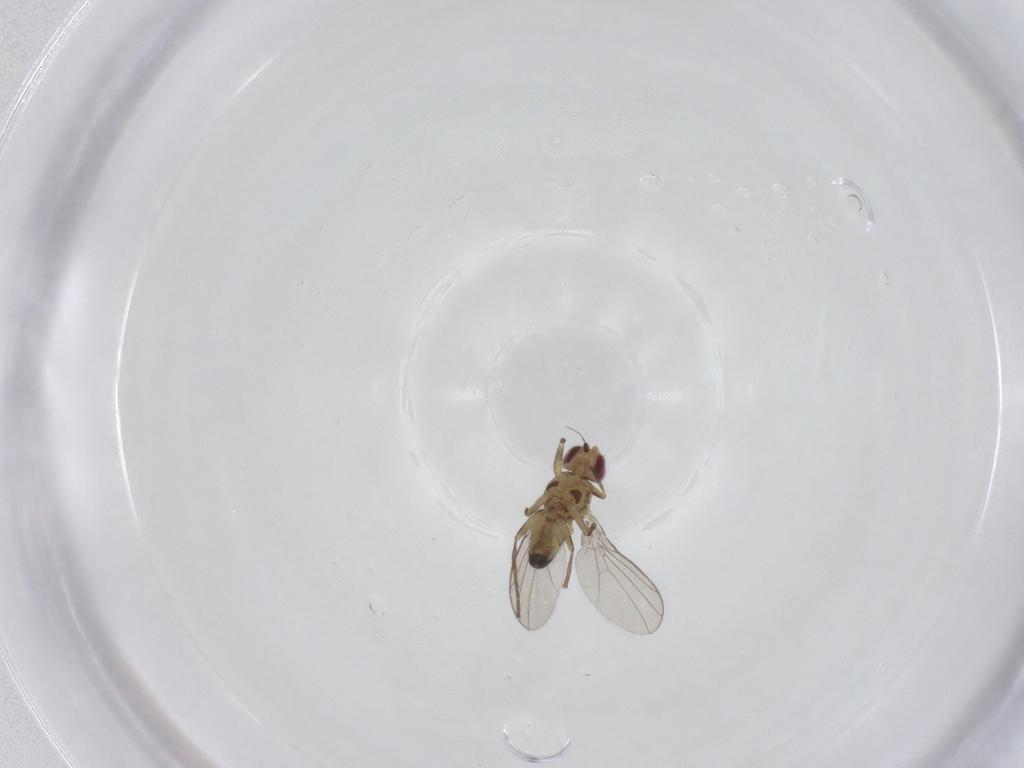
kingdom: Animalia
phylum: Arthropoda
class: Insecta
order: Diptera
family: Agromyzidae
